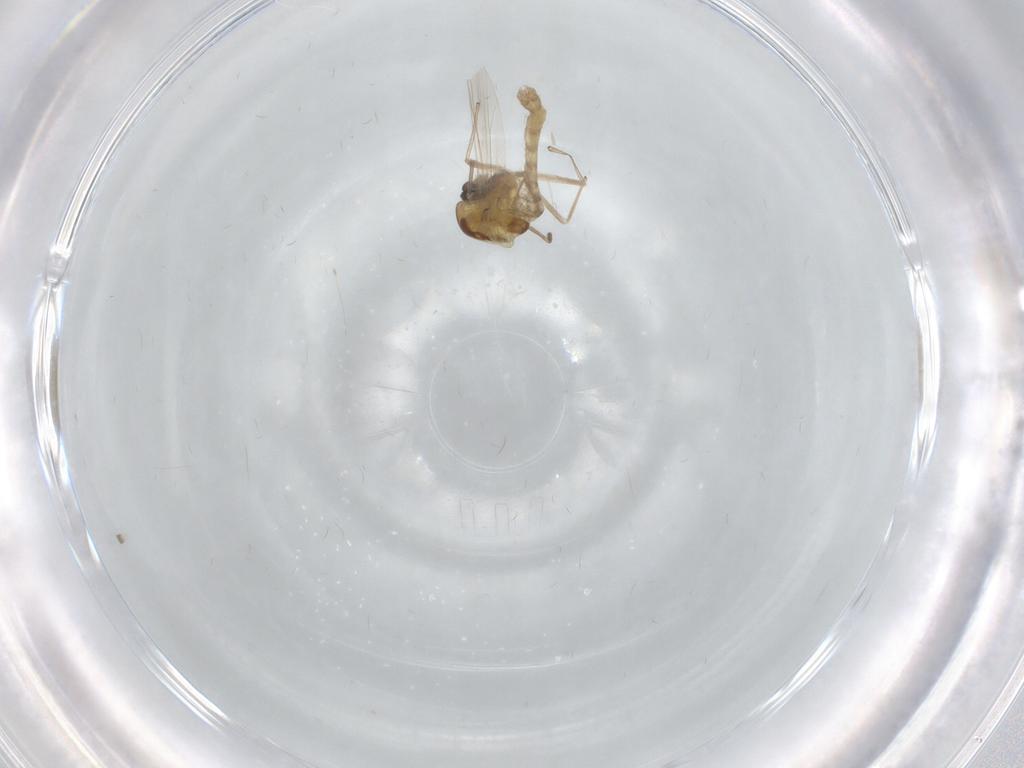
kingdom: Animalia
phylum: Arthropoda
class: Insecta
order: Diptera
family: Chironomidae
